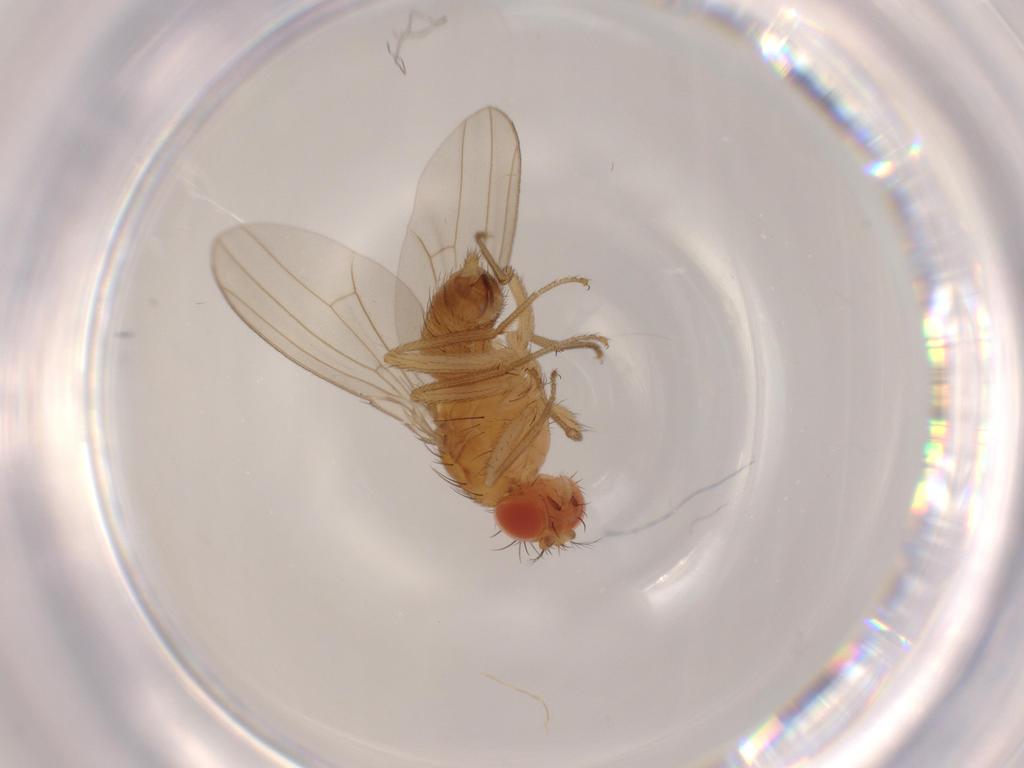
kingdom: Animalia
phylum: Arthropoda
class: Insecta
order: Diptera
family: Drosophilidae
